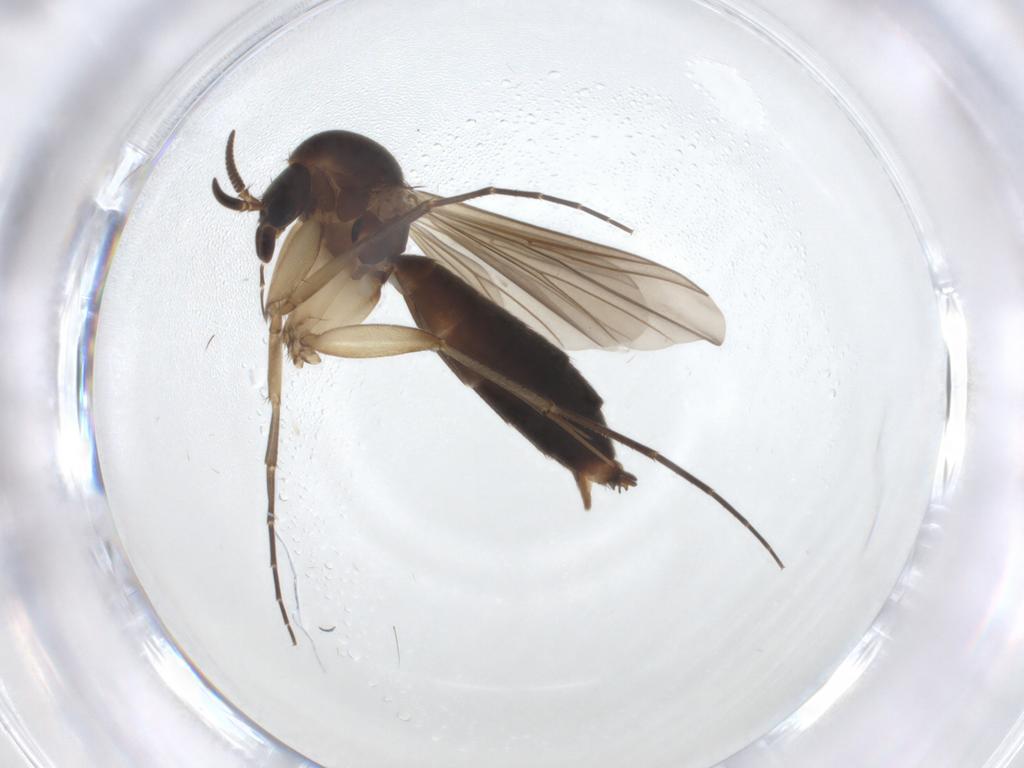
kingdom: Animalia
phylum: Arthropoda
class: Insecta
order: Diptera
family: Mycetophilidae
